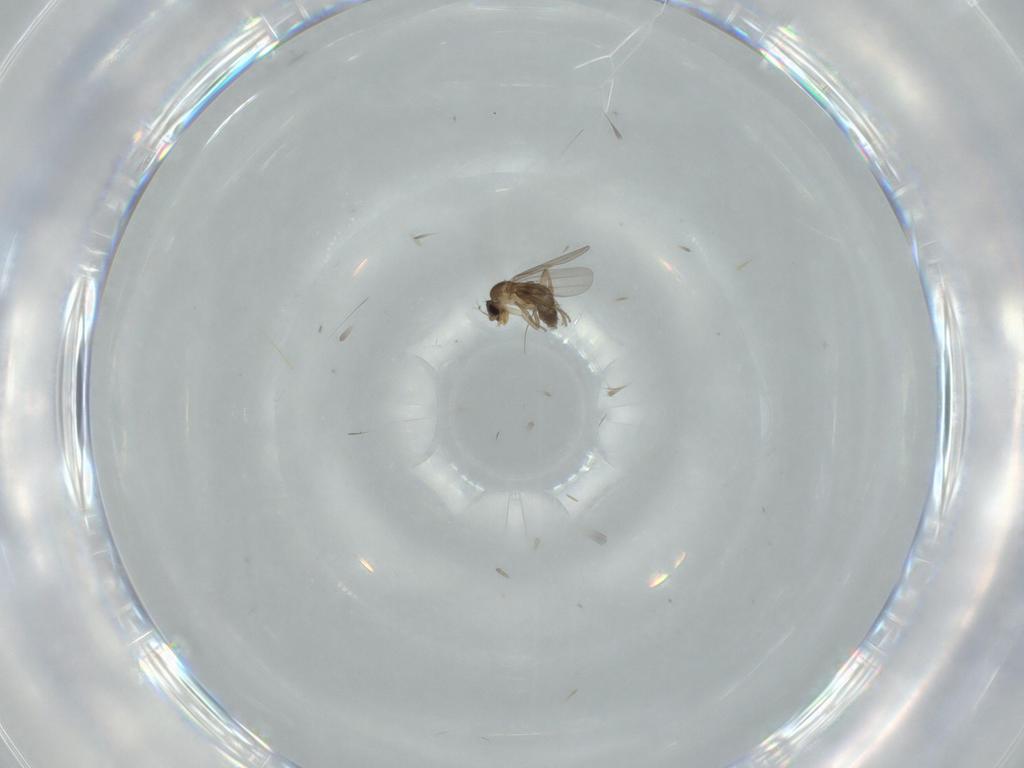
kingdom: Animalia
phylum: Arthropoda
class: Insecta
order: Diptera
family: Phoridae
